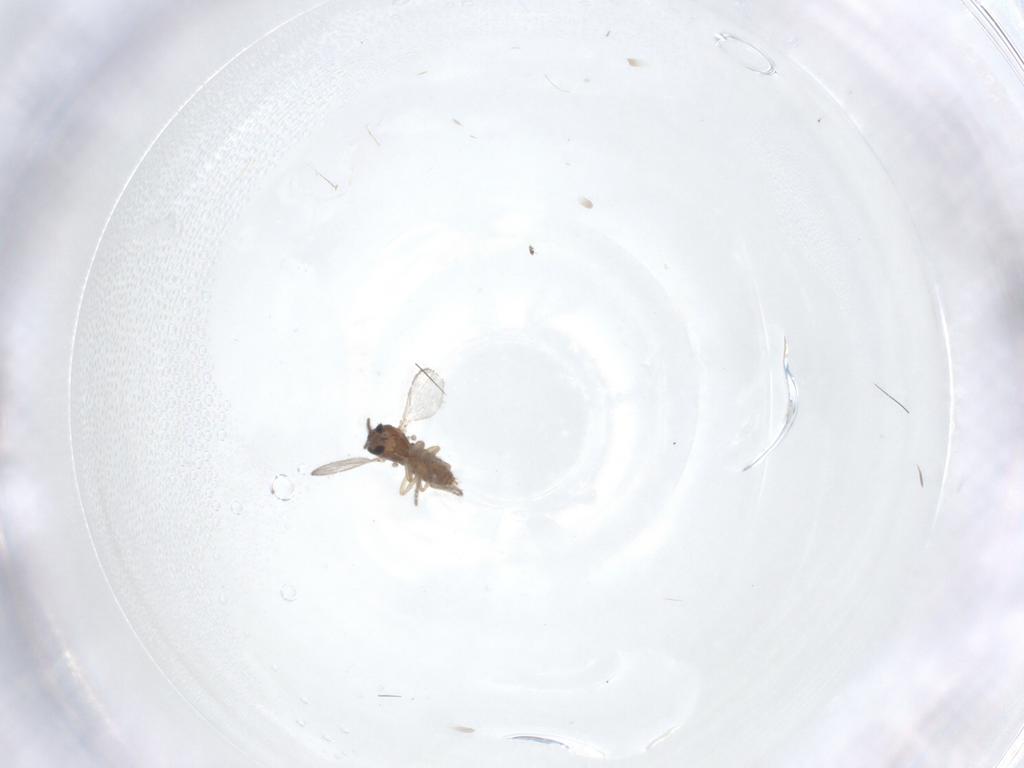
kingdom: Animalia
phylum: Arthropoda
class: Insecta
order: Diptera
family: Ceratopogonidae
